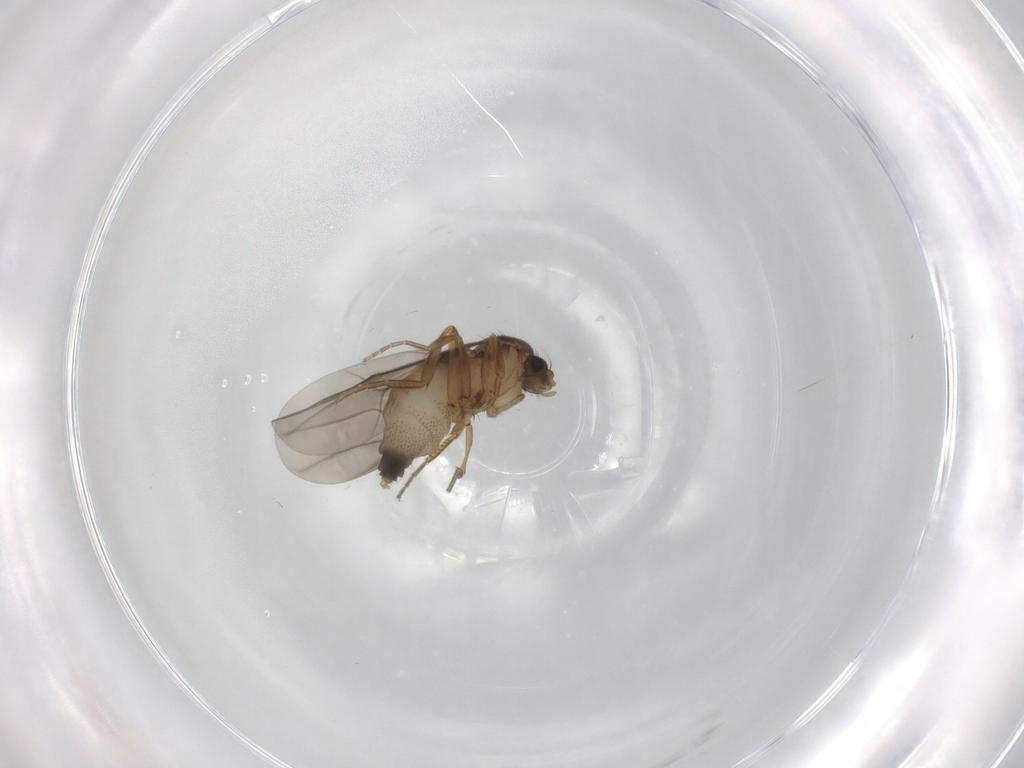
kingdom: Animalia
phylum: Arthropoda
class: Insecta
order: Diptera
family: Phoridae
